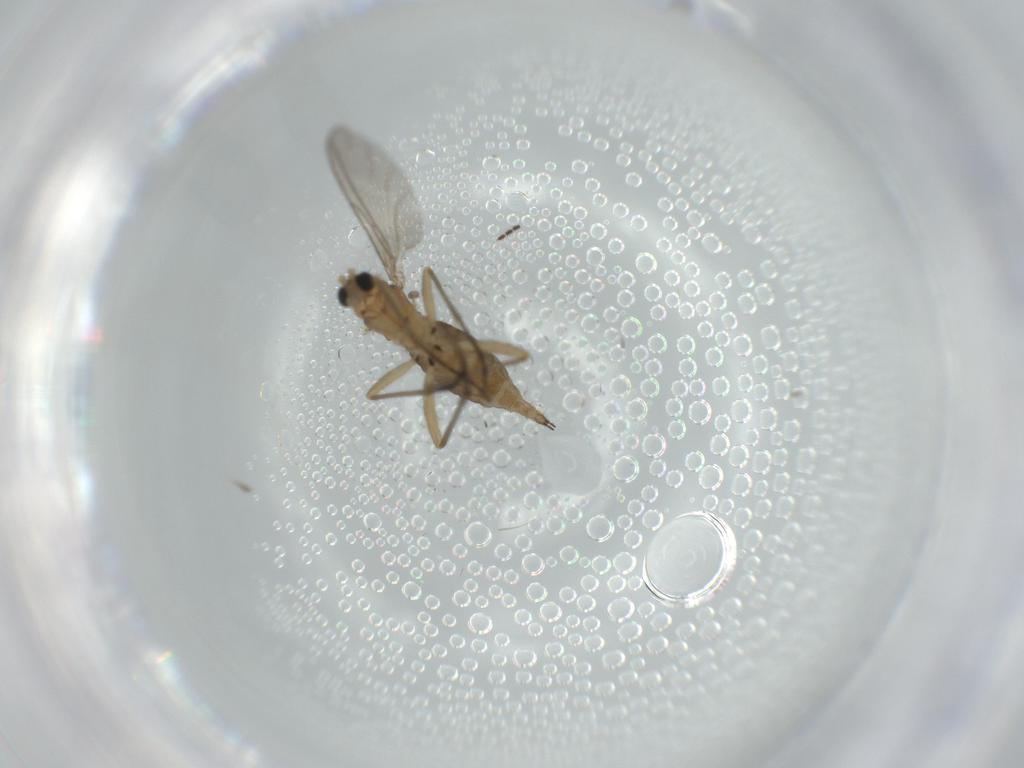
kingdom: Animalia
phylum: Arthropoda
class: Insecta
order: Diptera
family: Sciaridae
